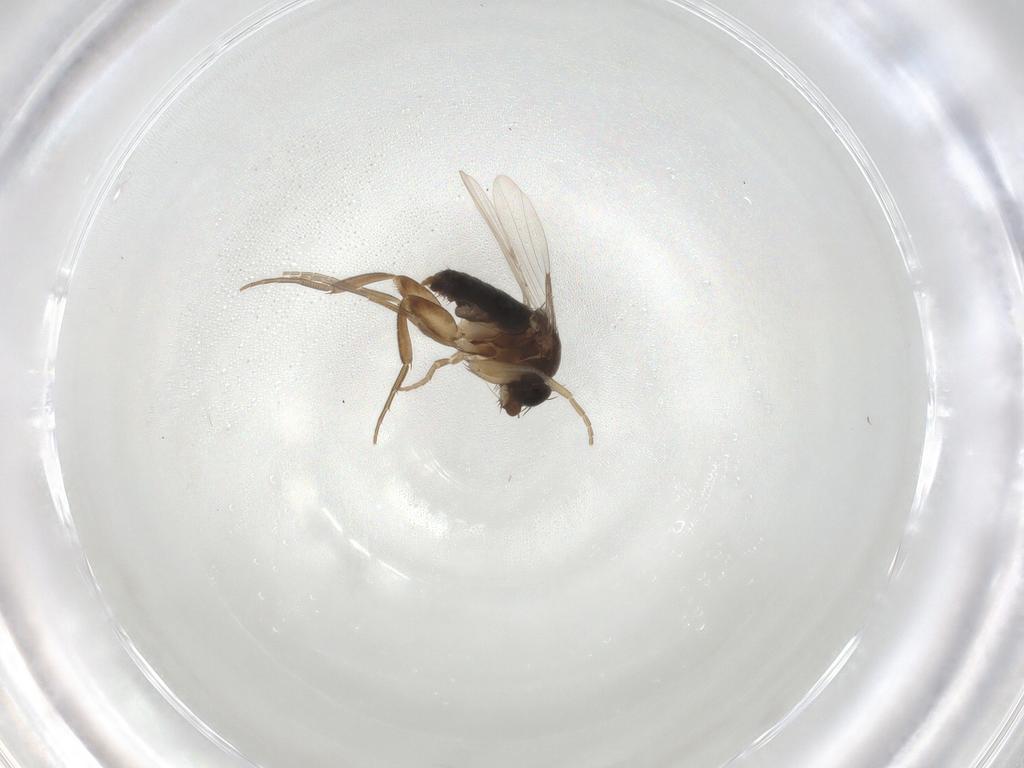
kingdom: Animalia
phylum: Arthropoda
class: Insecta
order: Diptera
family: Phoridae
